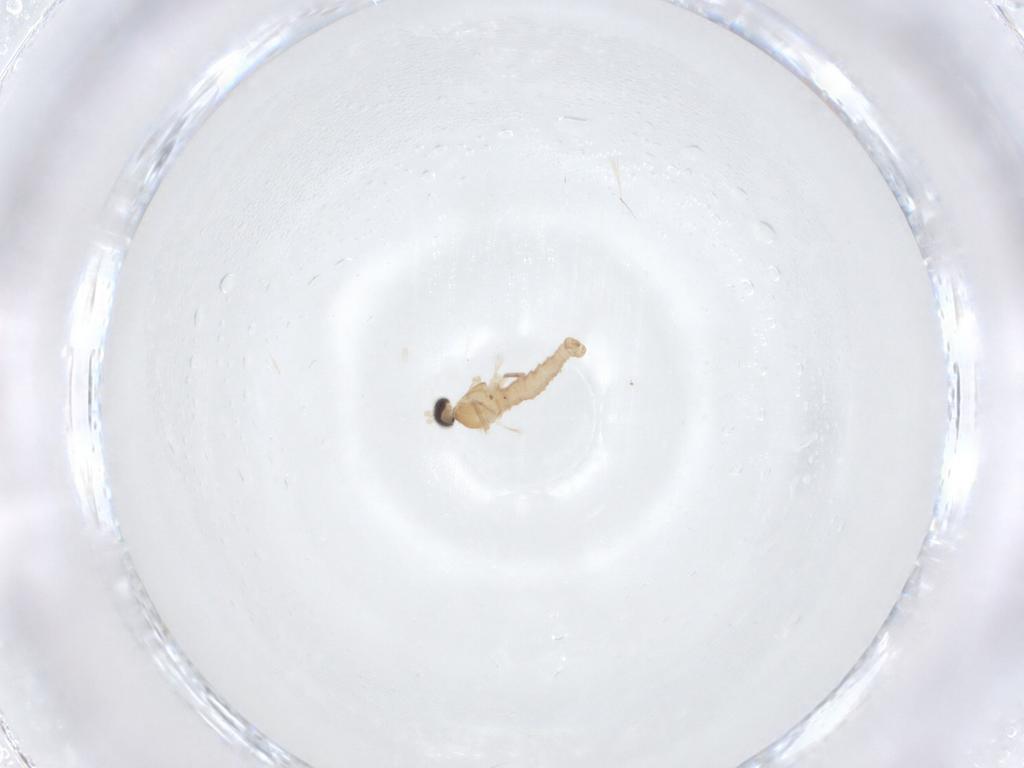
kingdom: Animalia
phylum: Arthropoda
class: Insecta
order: Diptera
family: Cecidomyiidae
